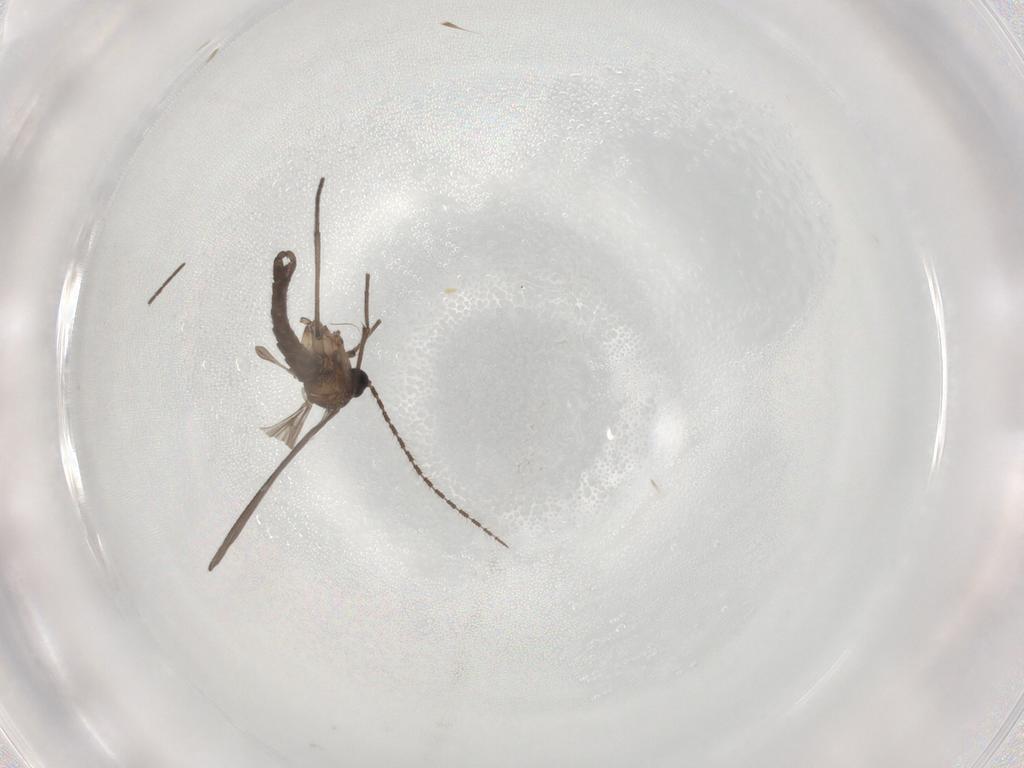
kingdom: Animalia
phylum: Arthropoda
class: Insecta
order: Diptera
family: Sciaridae
